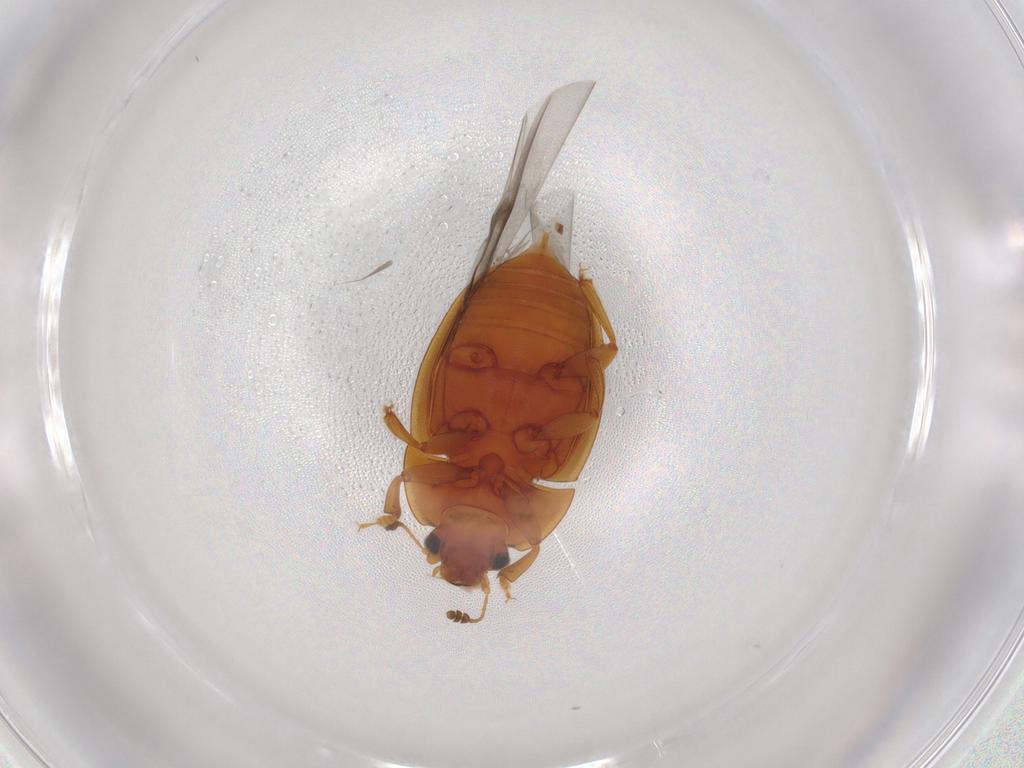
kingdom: Animalia
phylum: Arthropoda
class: Insecta
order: Coleoptera
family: Nitidulidae
